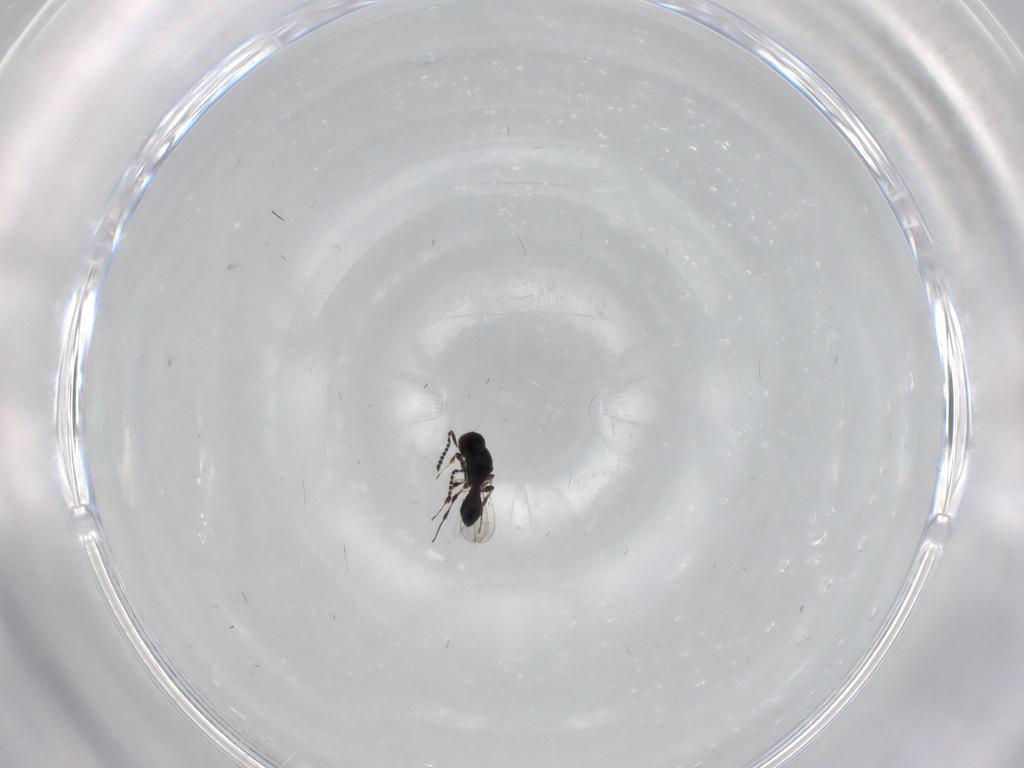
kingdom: Animalia
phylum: Arthropoda
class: Insecta
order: Hymenoptera
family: Platygastridae
